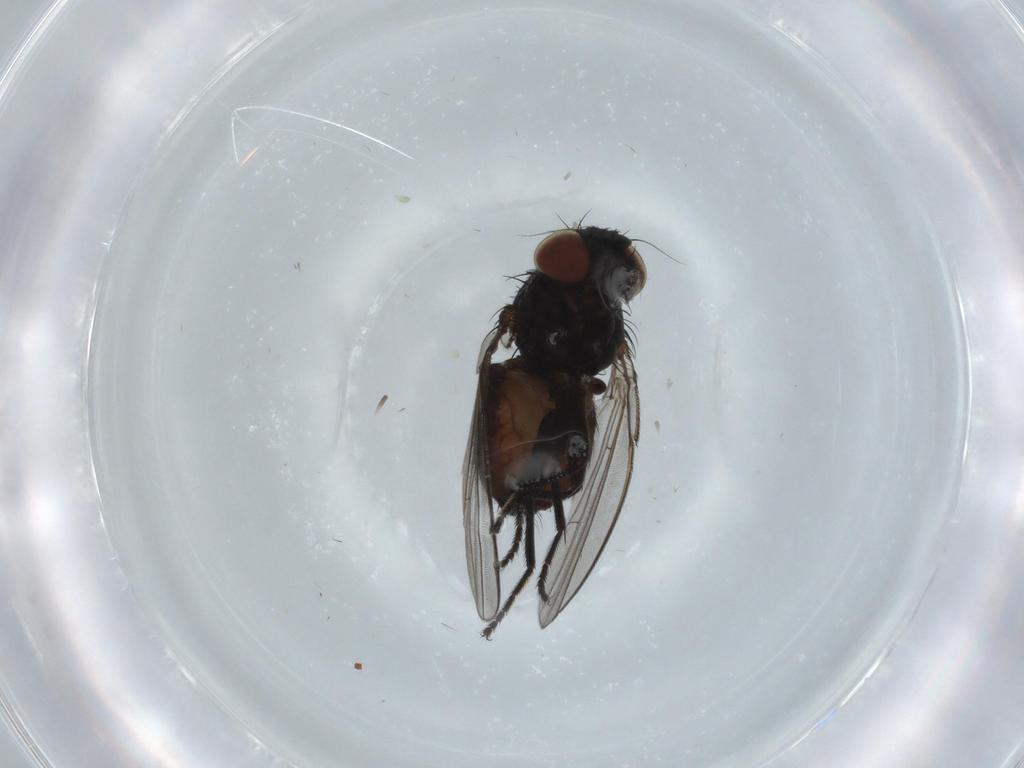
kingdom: Animalia
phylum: Arthropoda
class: Insecta
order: Diptera
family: Milichiidae
